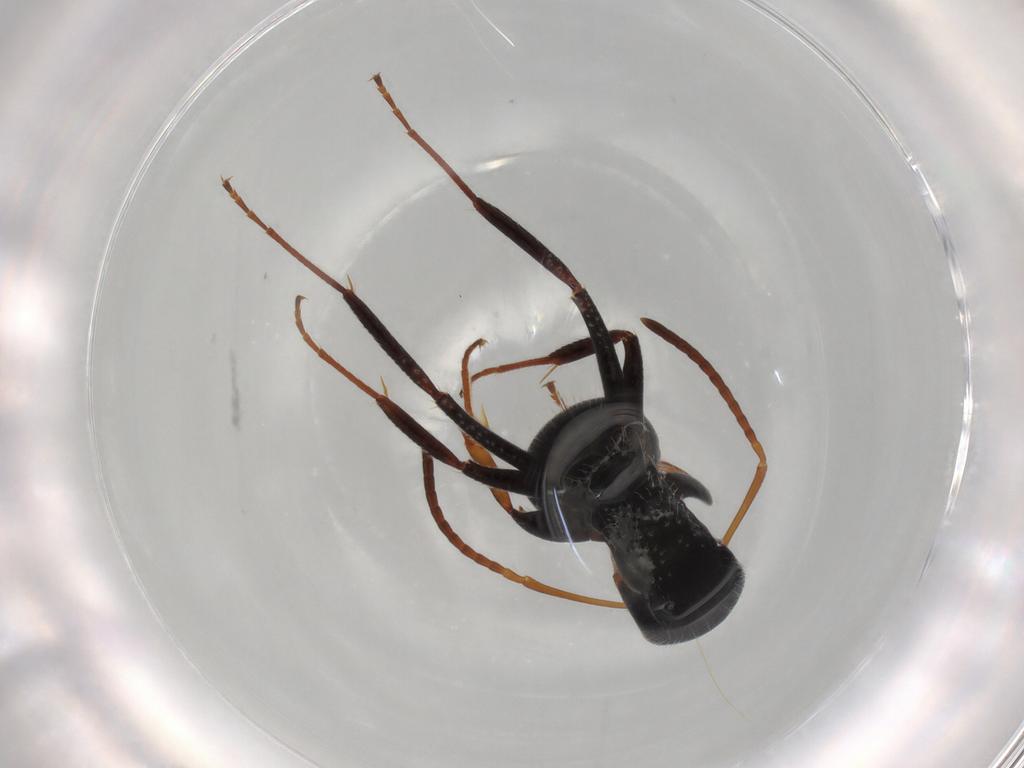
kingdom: Animalia
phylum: Arthropoda
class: Insecta
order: Hymenoptera
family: Formicidae
